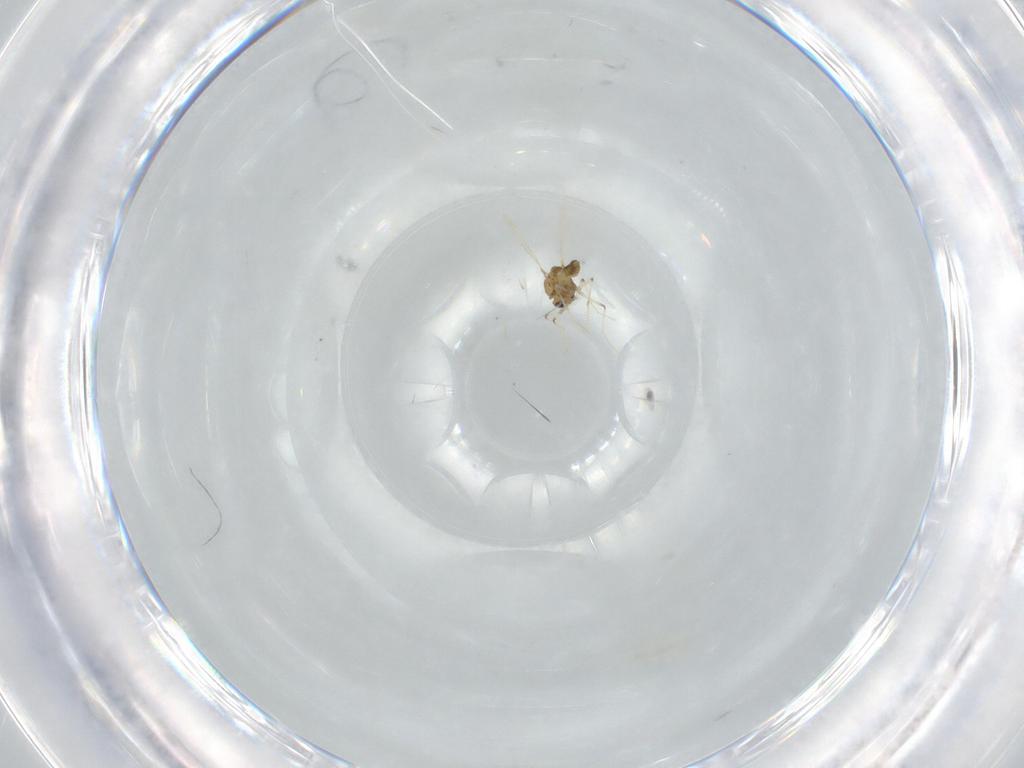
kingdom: Animalia
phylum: Arthropoda
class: Insecta
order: Diptera
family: Chironomidae
